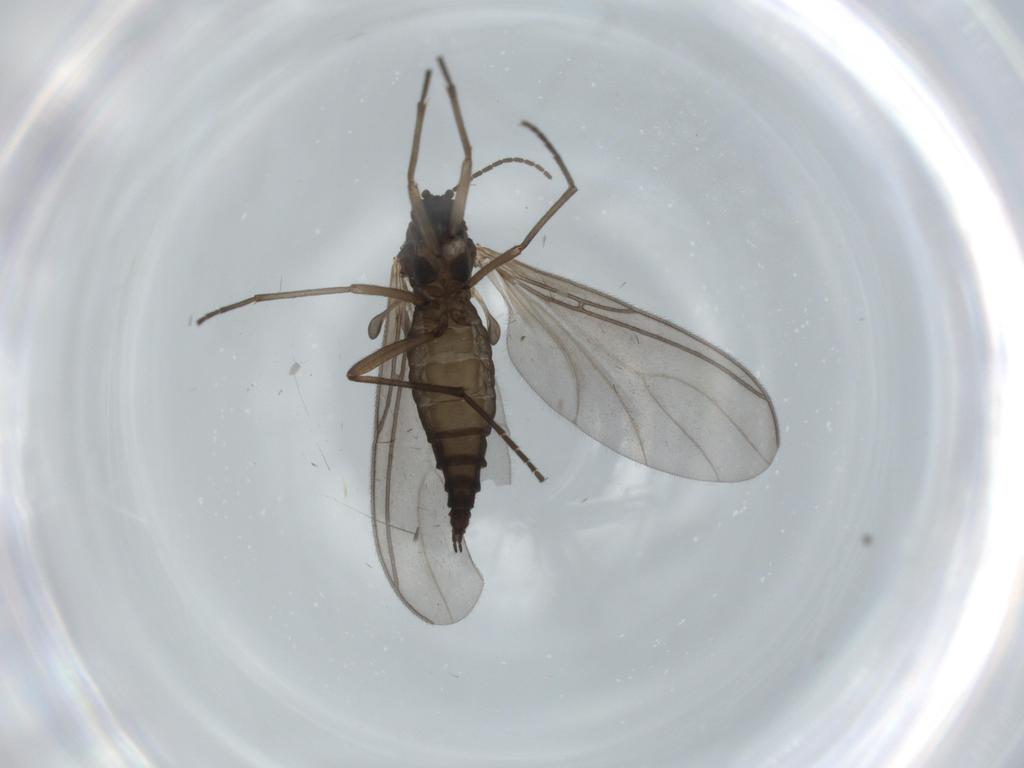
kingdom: Animalia
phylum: Arthropoda
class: Insecta
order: Diptera
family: Sciaridae
